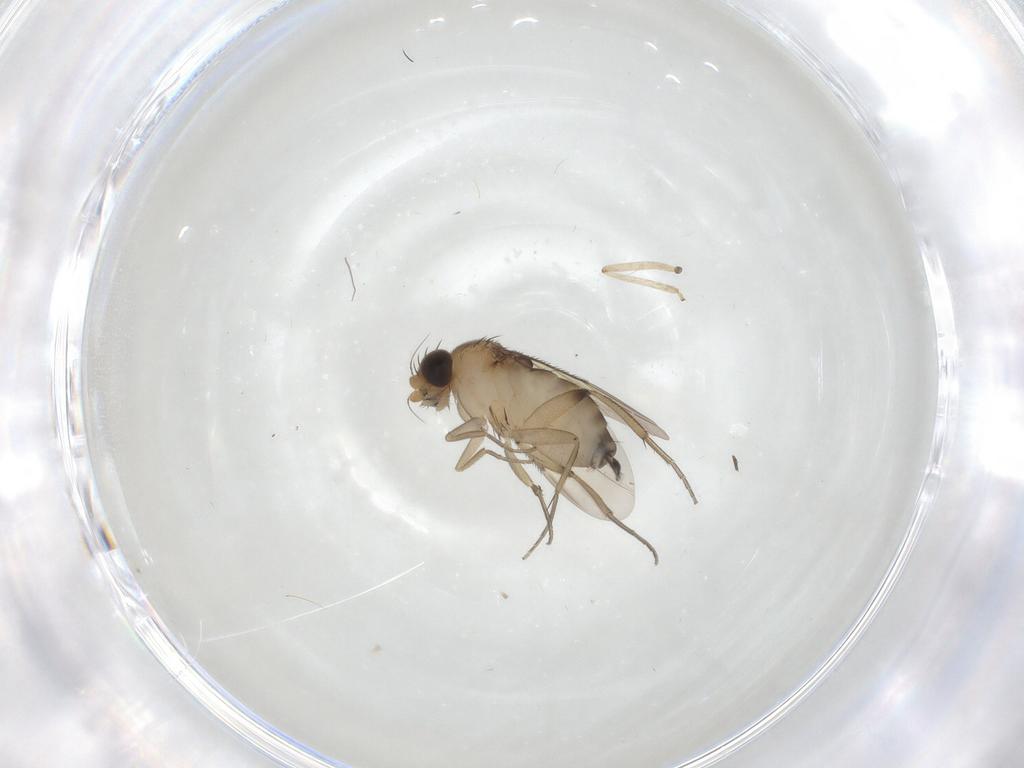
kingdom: Animalia
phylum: Arthropoda
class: Insecta
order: Diptera
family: Phoridae
